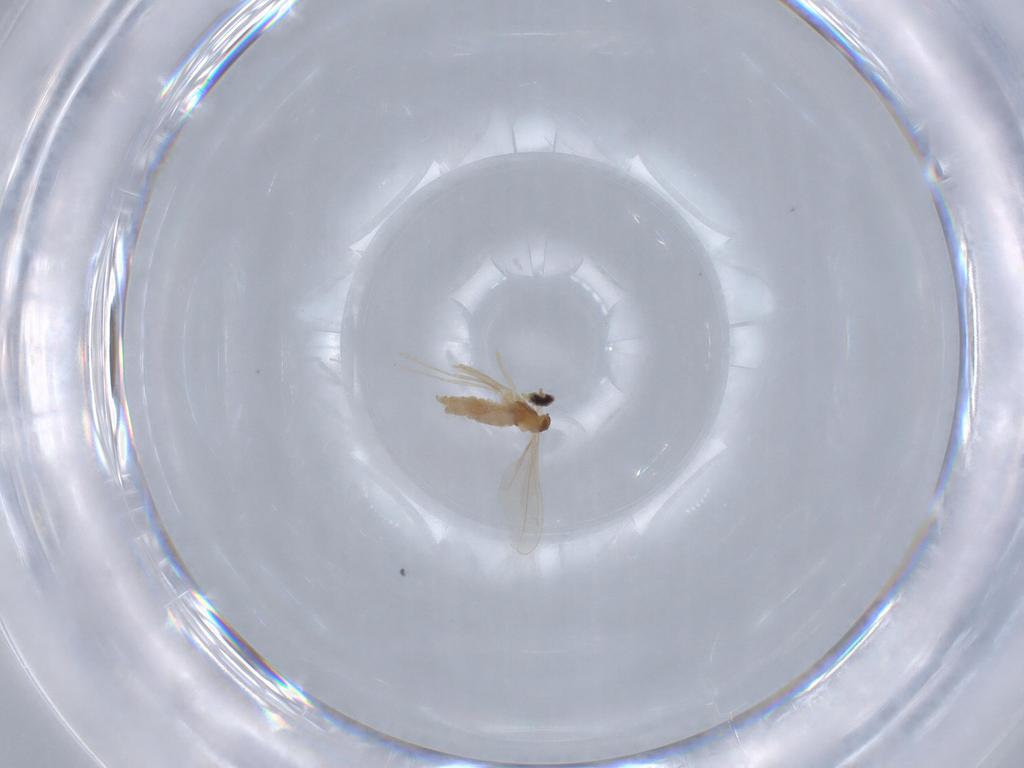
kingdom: Animalia
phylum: Arthropoda
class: Insecta
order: Diptera
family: Cecidomyiidae
